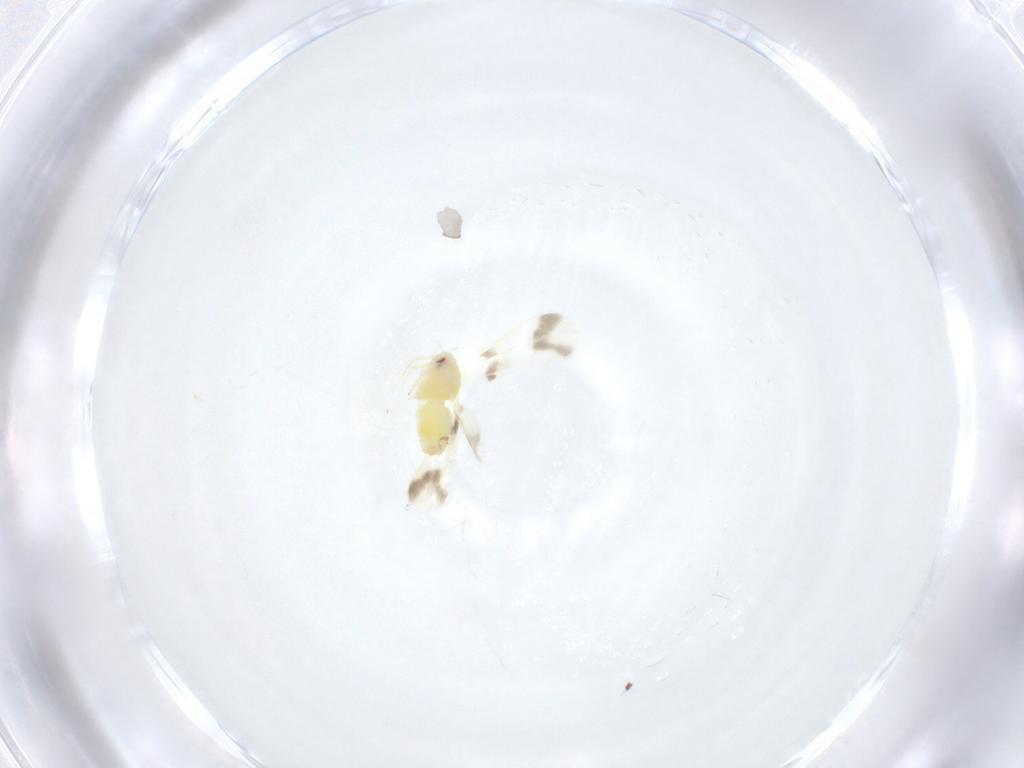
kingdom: Animalia
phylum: Arthropoda
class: Insecta
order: Hemiptera
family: Aleyrodidae
